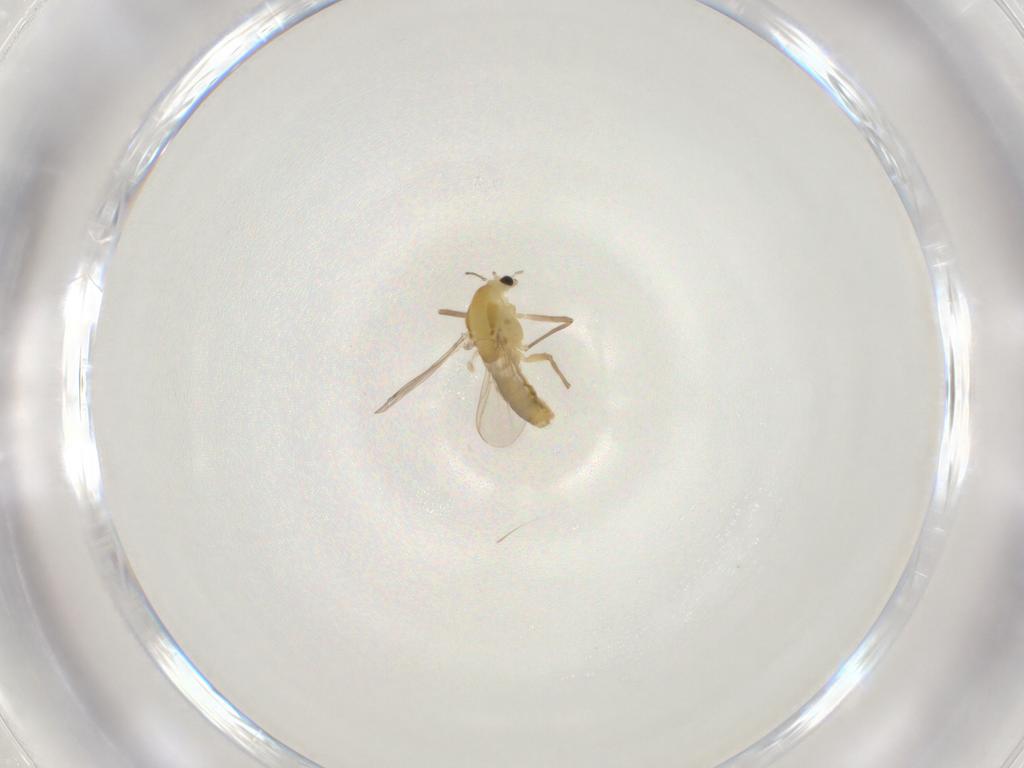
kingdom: Animalia
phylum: Arthropoda
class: Insecta
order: Diptera
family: Chironomidae
